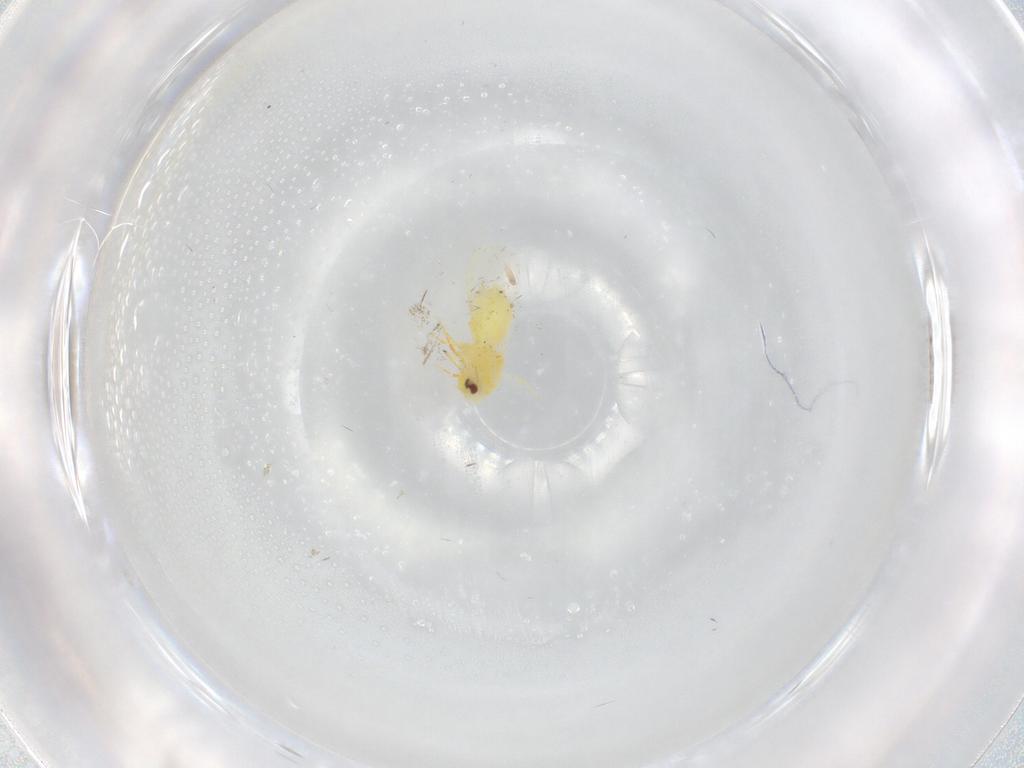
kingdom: Animalia
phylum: Arthropoda
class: Insecta
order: Hemiptera
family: Aleyrodidae
